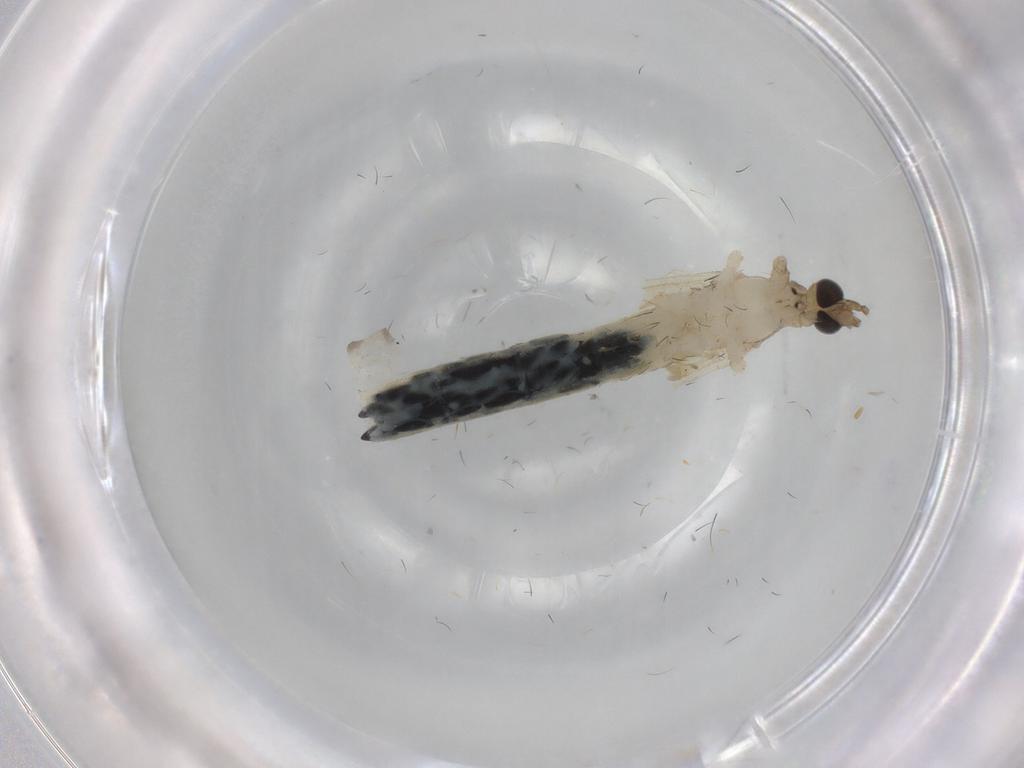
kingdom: Animalia
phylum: Arthropoda
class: Insecta
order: Diptera
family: Limoniidae
